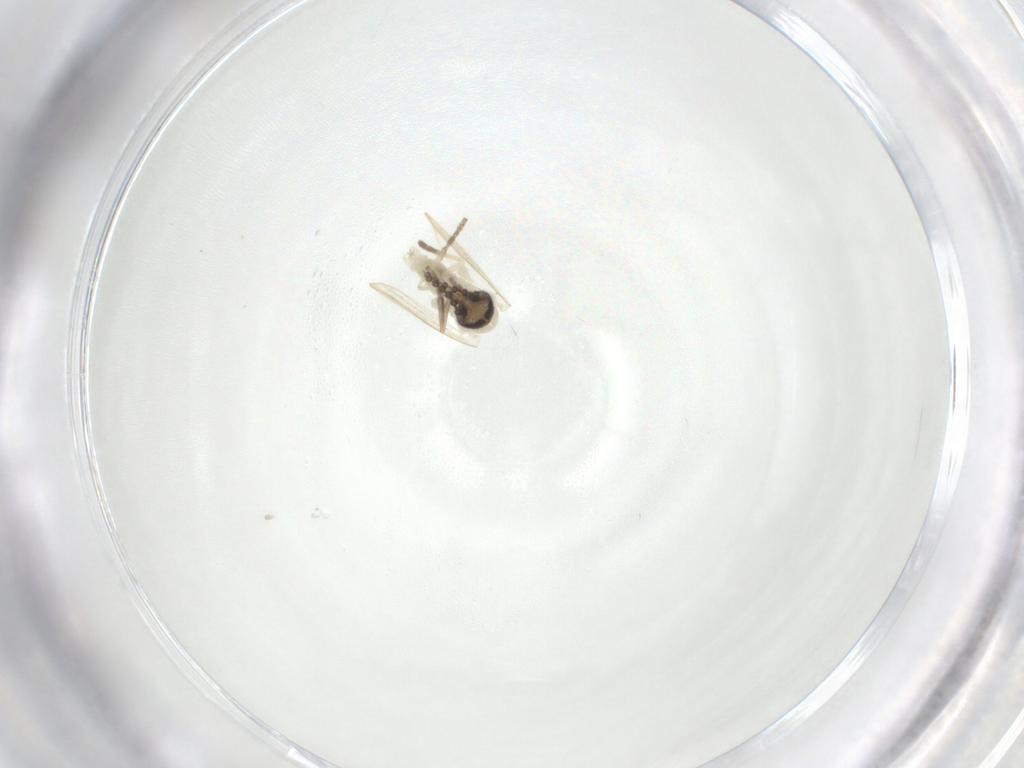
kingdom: Animalia
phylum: Arthropoda
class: Insecta
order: Diptera
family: Psychodidae
